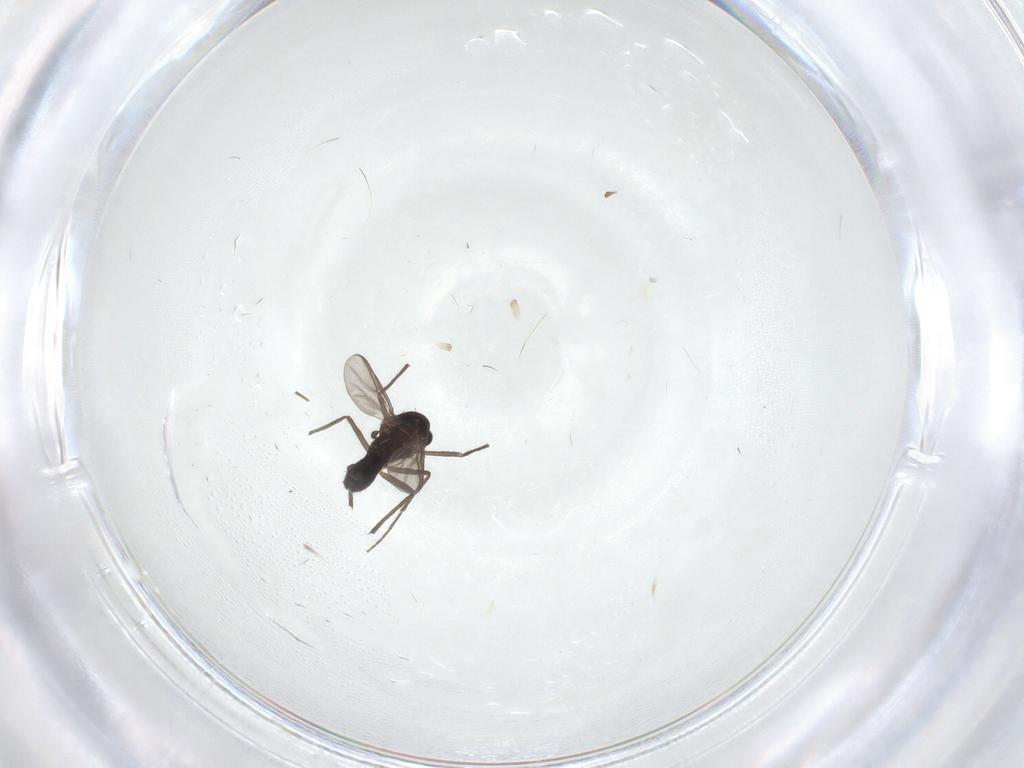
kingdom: Animalia
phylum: Arthropoda
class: Insecta
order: Diptera
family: Chironomidae
